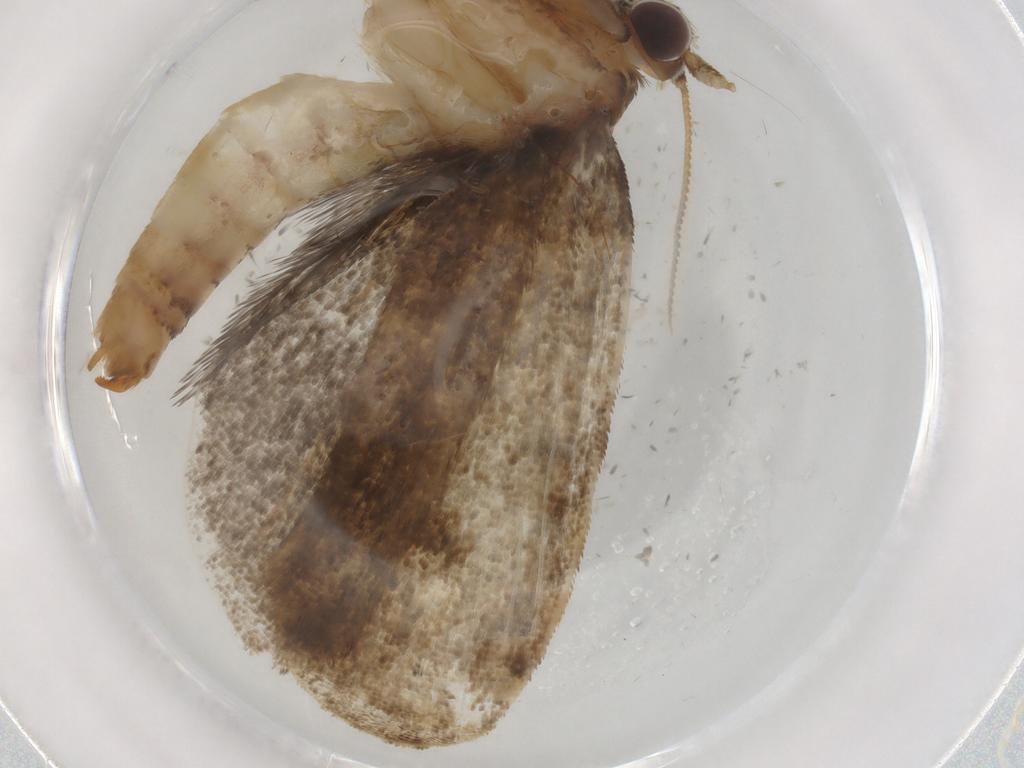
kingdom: Animalia
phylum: Arthropoda
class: Insecta
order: Lepidoptera
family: Tineidae
